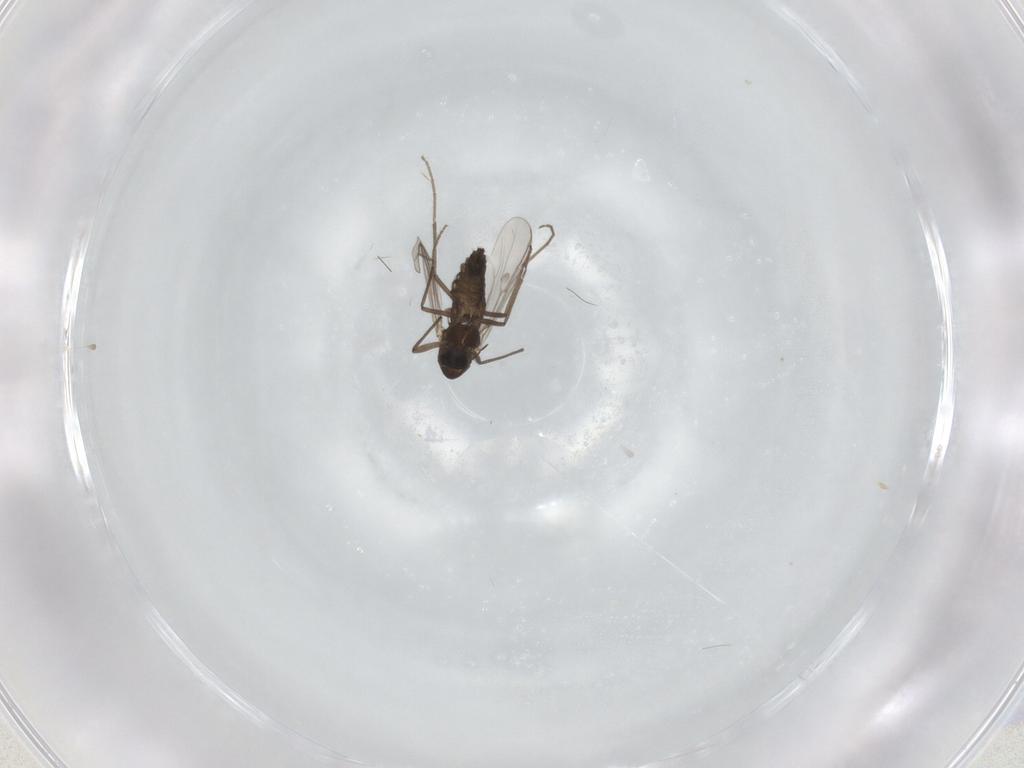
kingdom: Animalia
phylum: Arthropoda
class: Insecta
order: Diptera
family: Chironomidae
